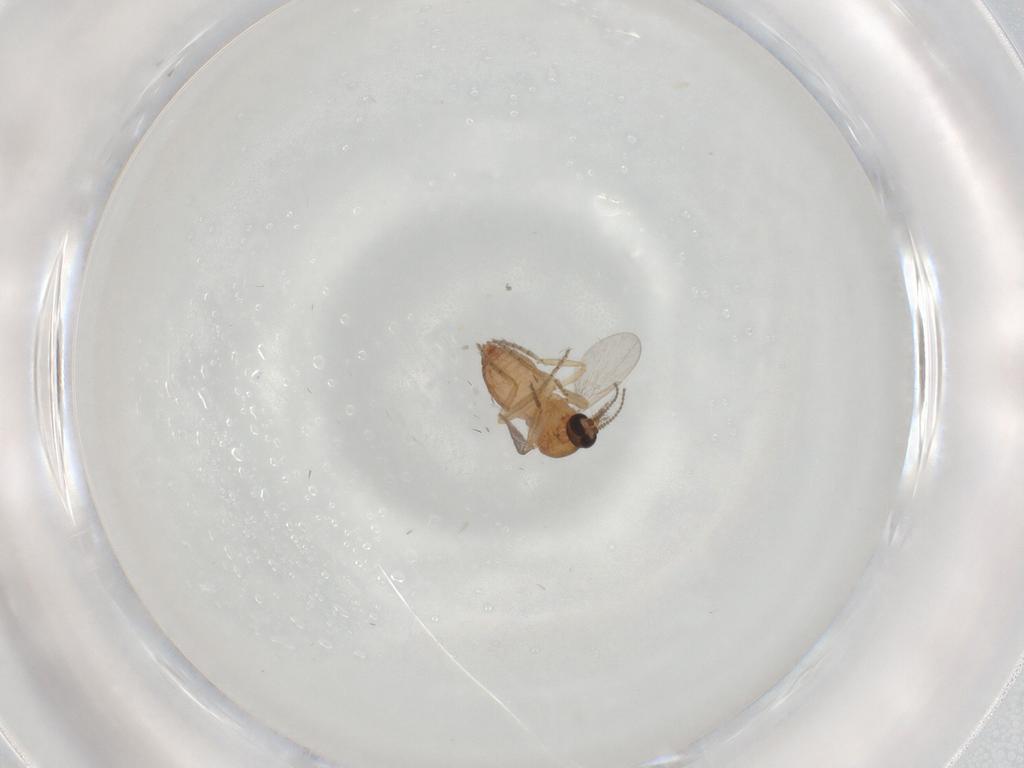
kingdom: Animalia
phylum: Arthropoda
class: Insecta
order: Diptera
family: Ceratopogonidae
